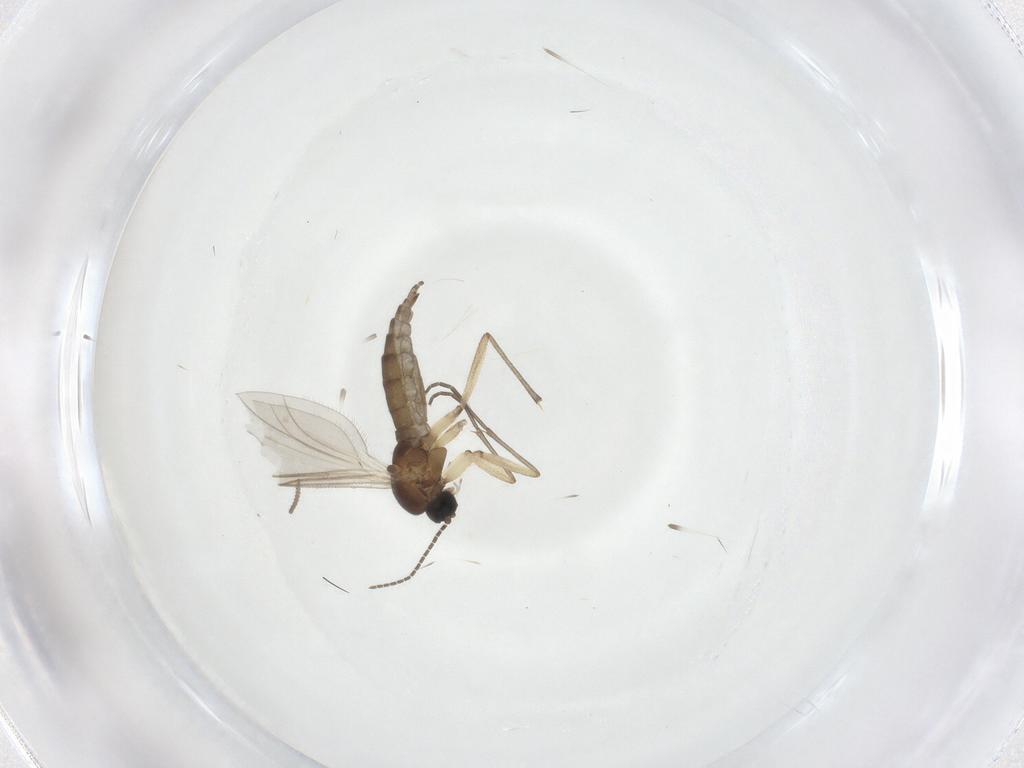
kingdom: Animalia
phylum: Arthropoda
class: Insecta
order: Diptera
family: Sciaridae
